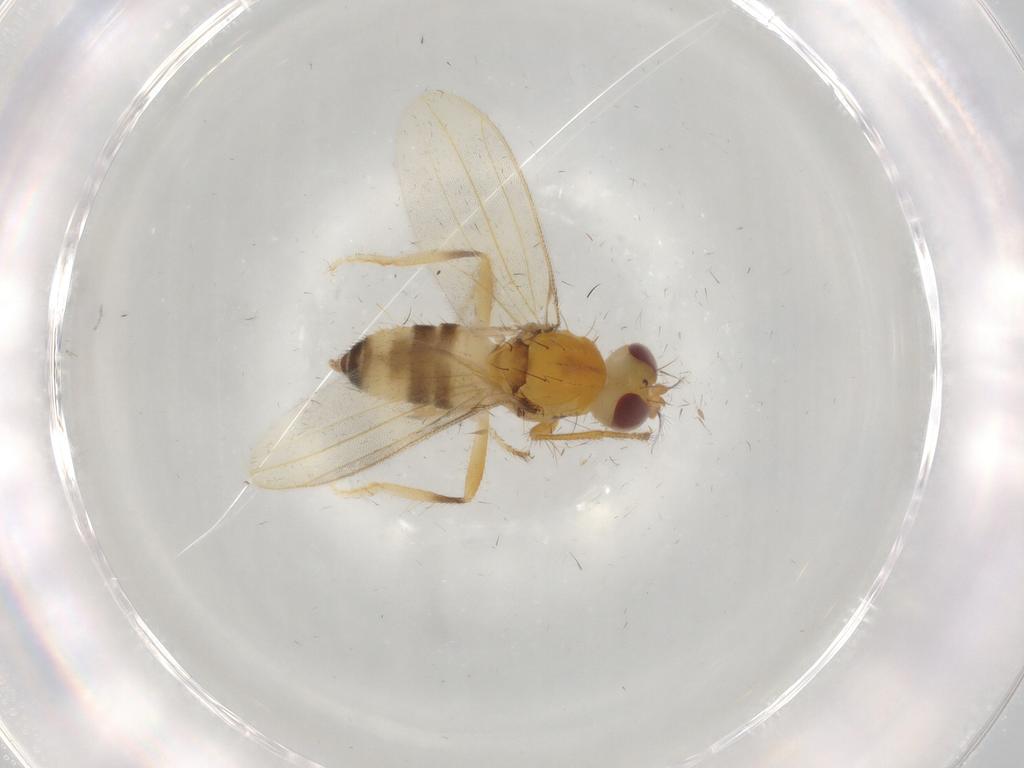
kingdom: Animalia
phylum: Arthropoda
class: Insecta
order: Diptera
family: Periscelididae
